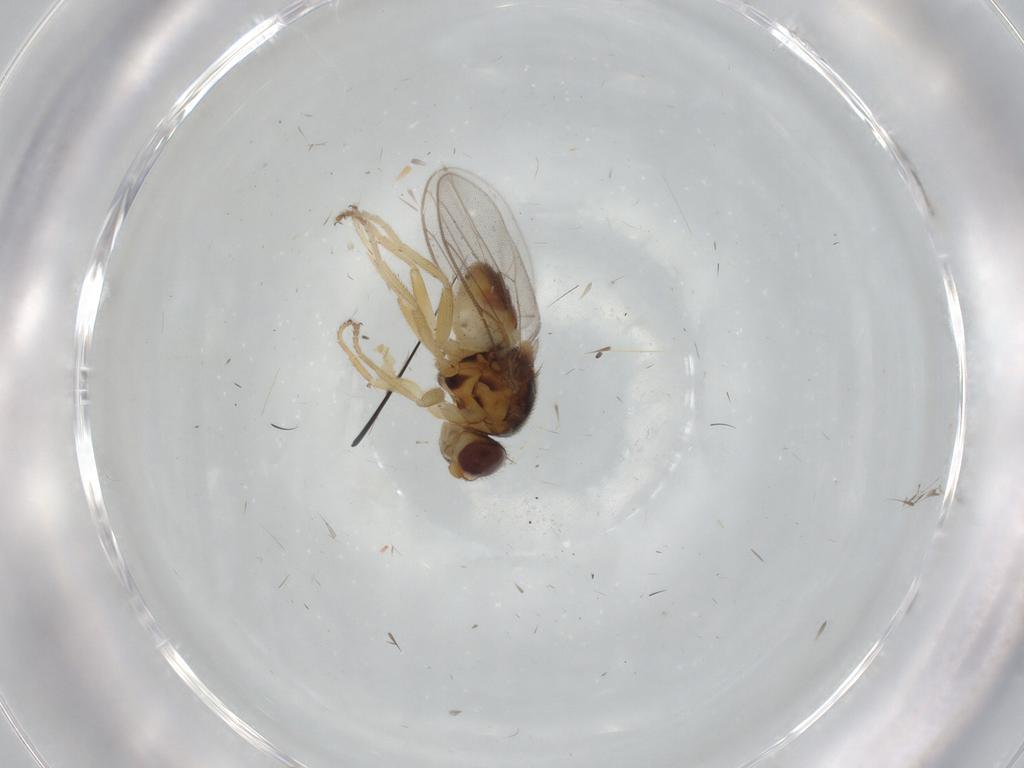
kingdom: Animalia
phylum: Arthropoda
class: Insecta
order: Diptera
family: Chloropidae
